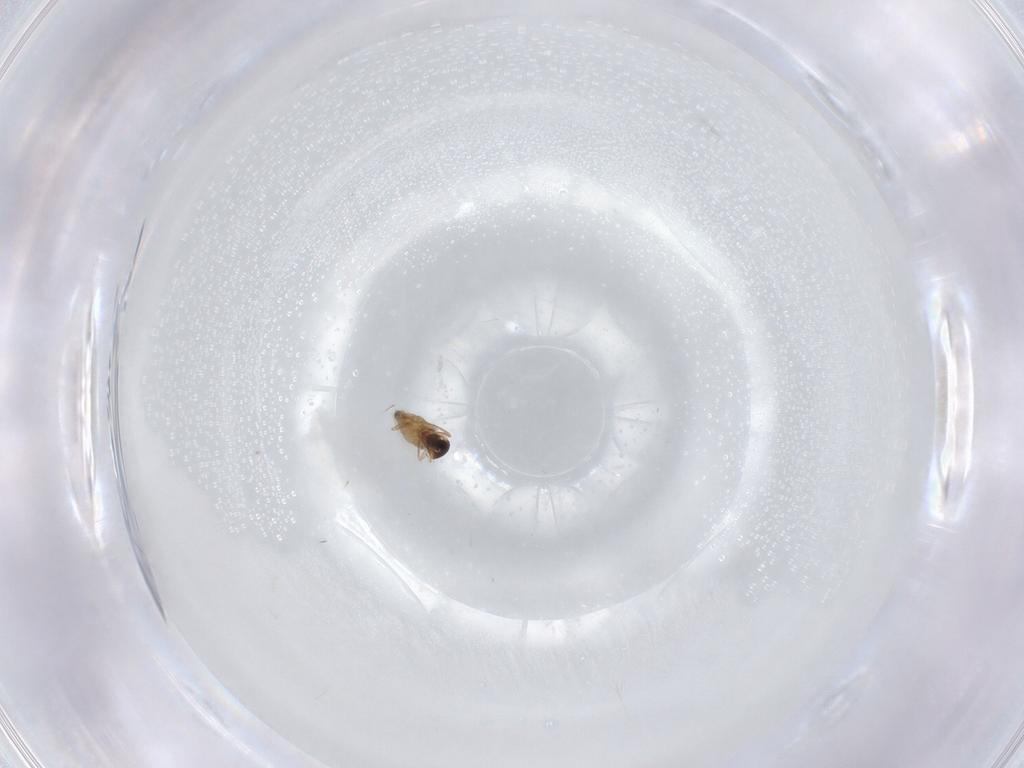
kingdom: Animalia
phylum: Arthropoda
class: Insecta
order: Diptera
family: Cecidomyiidae
